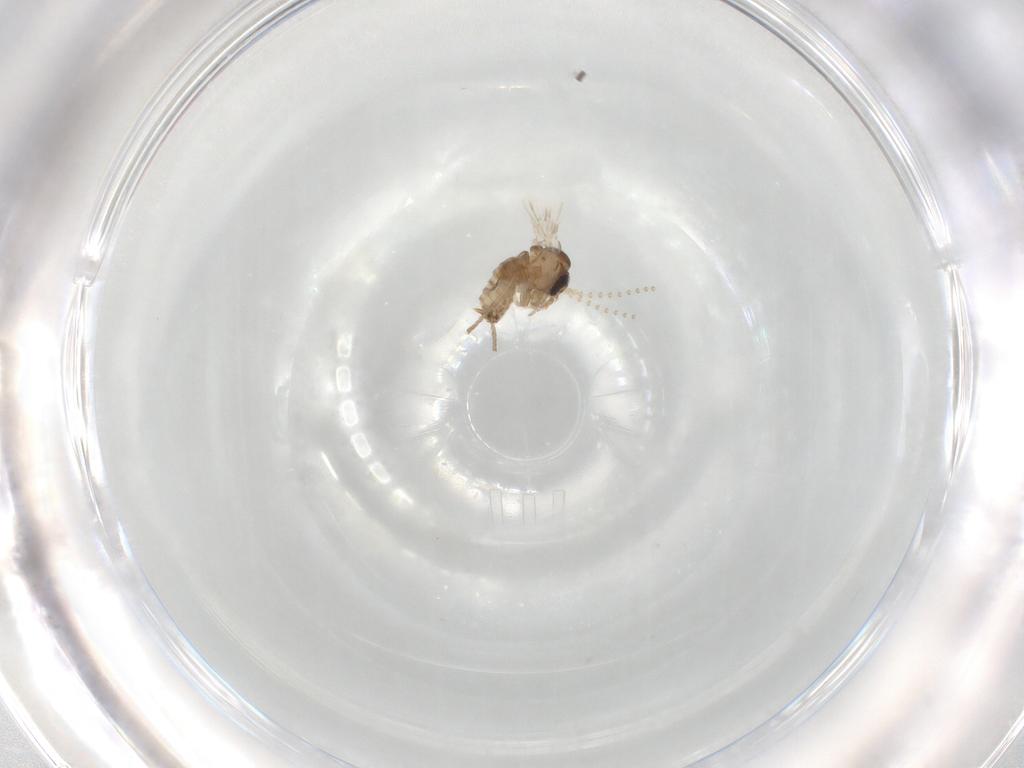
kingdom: Animalia
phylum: Arthropoda
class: Insecta
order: Diptera
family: Psychodidae
